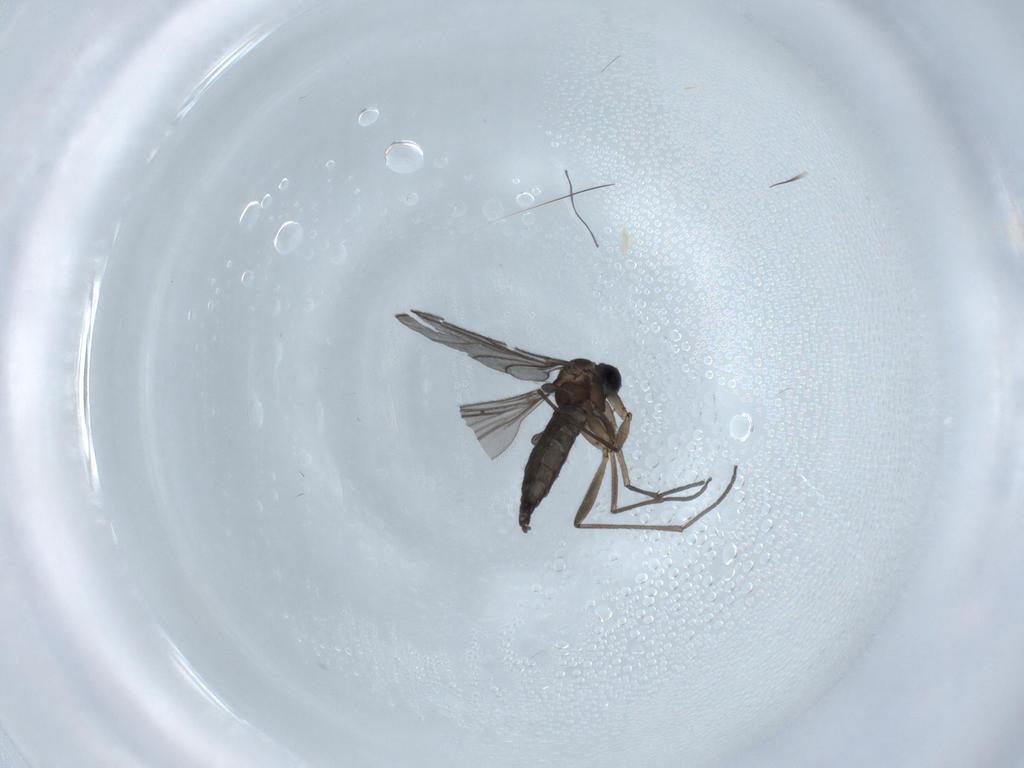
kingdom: Animalia
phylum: Arthropoda
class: Insecta
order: Diptera
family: Sciaridae
